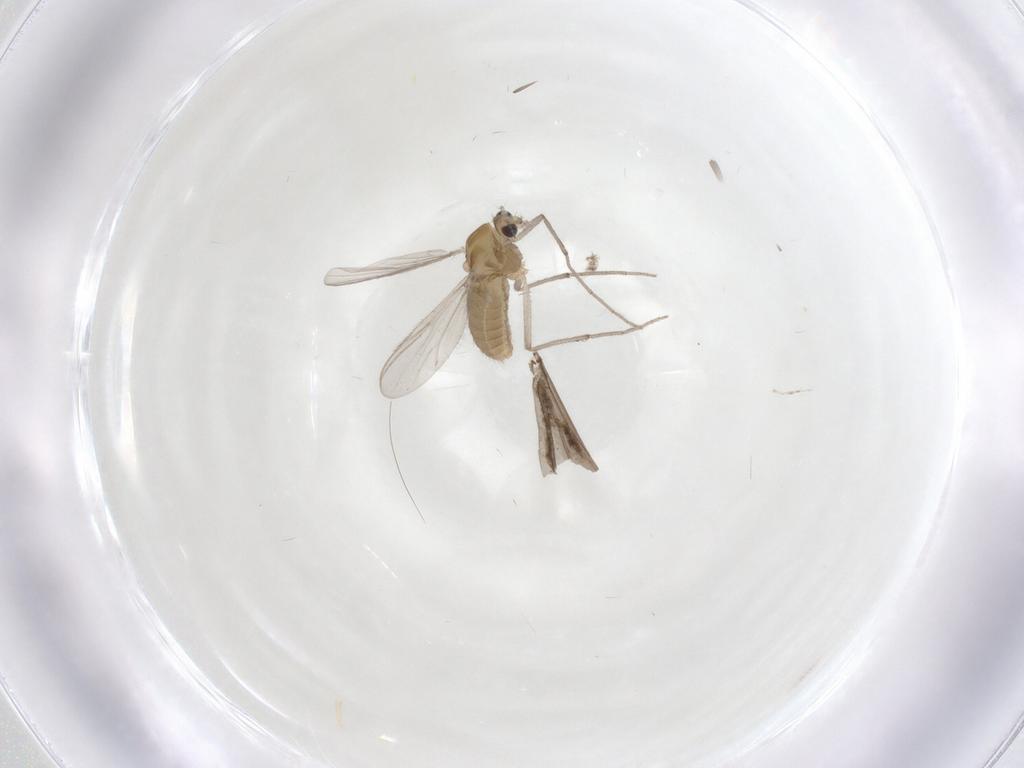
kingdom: Animalia
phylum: Arthropoda
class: Insecta
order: Diptera
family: Chironomidae
